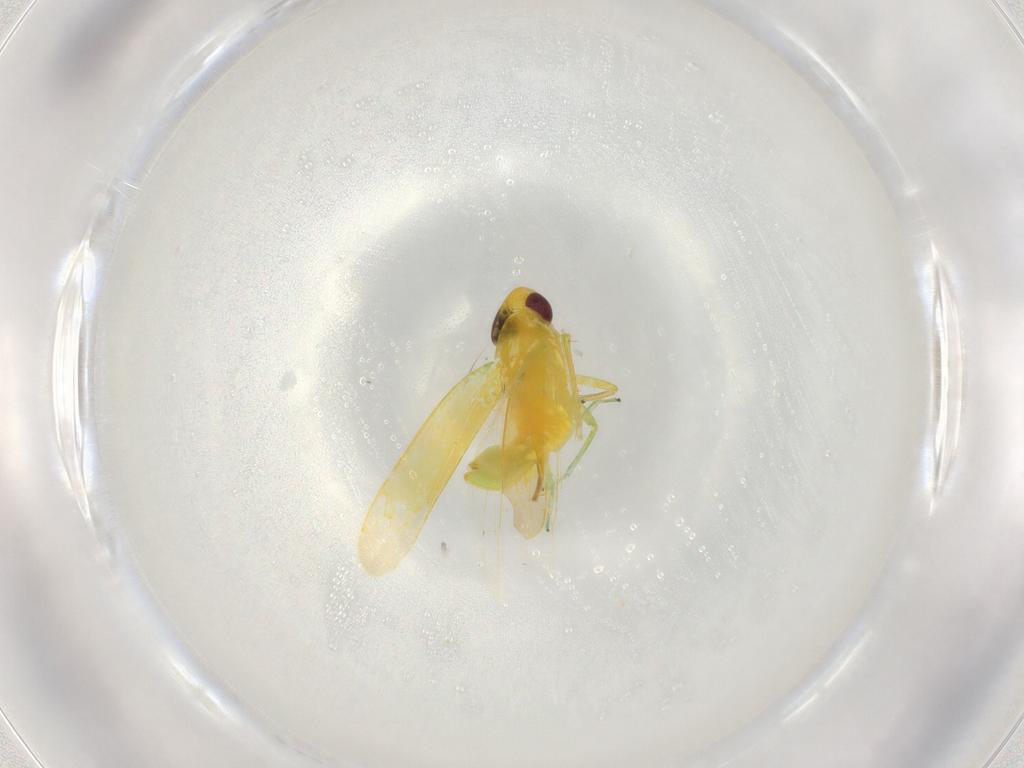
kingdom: Animalia
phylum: Arthropoda
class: Insecta
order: Hemiptera
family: Cicadellidae
